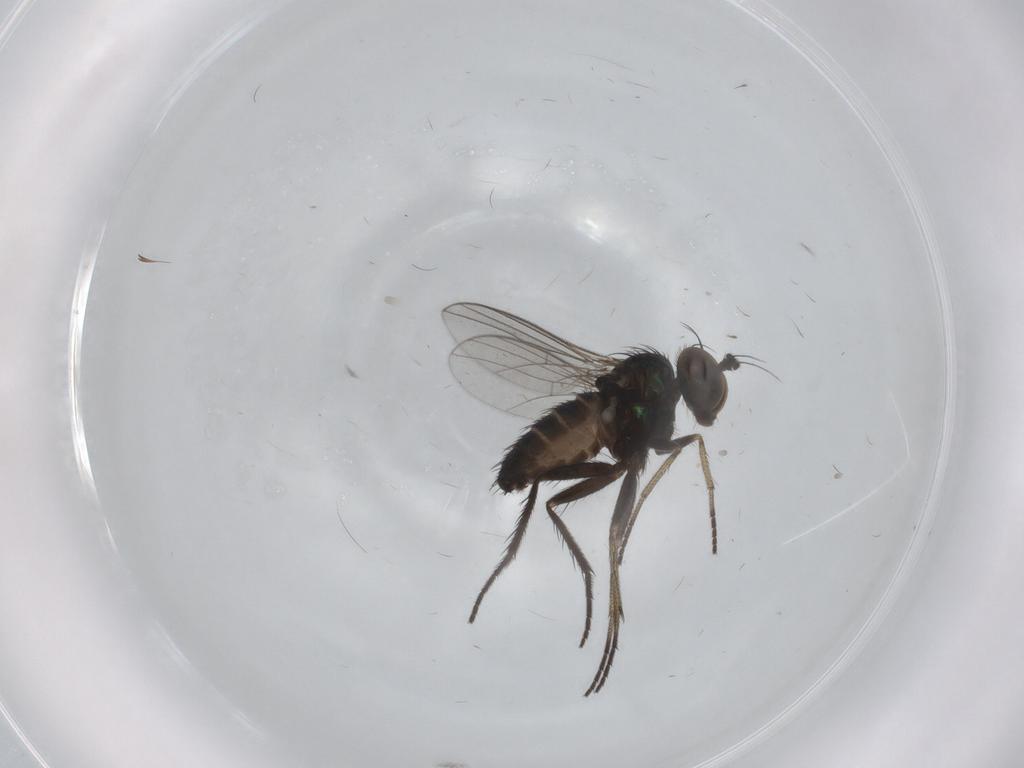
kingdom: Animalia
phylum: Arthropoda
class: Insecta
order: Diptera
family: Dolichopodidae
